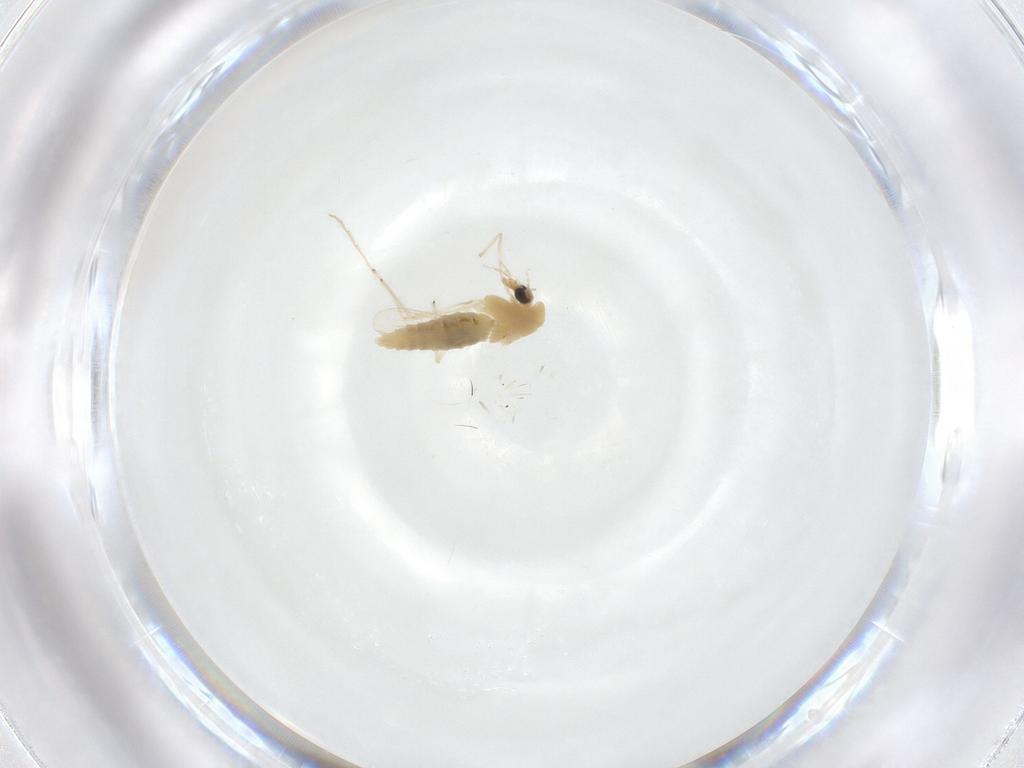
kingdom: Animalia
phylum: Arthropoda
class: Insecta
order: Diptera
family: Chironomidae
